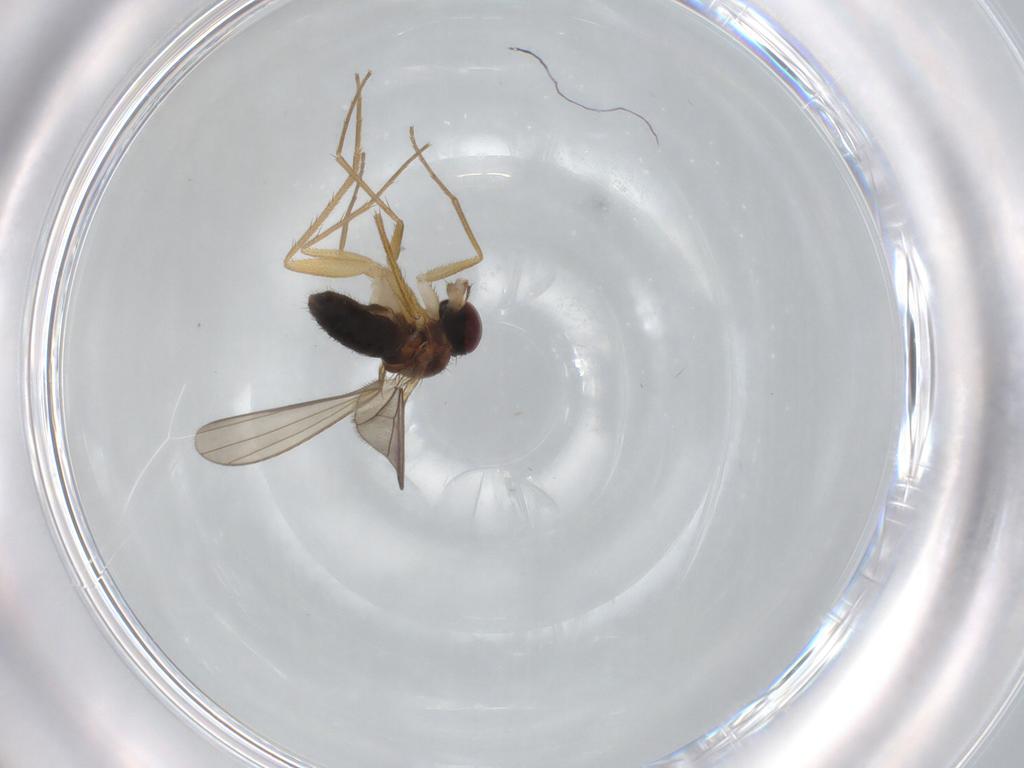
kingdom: Animalia
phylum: Arthropoda
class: Insecta
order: Diptera
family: Dolichopodidae
